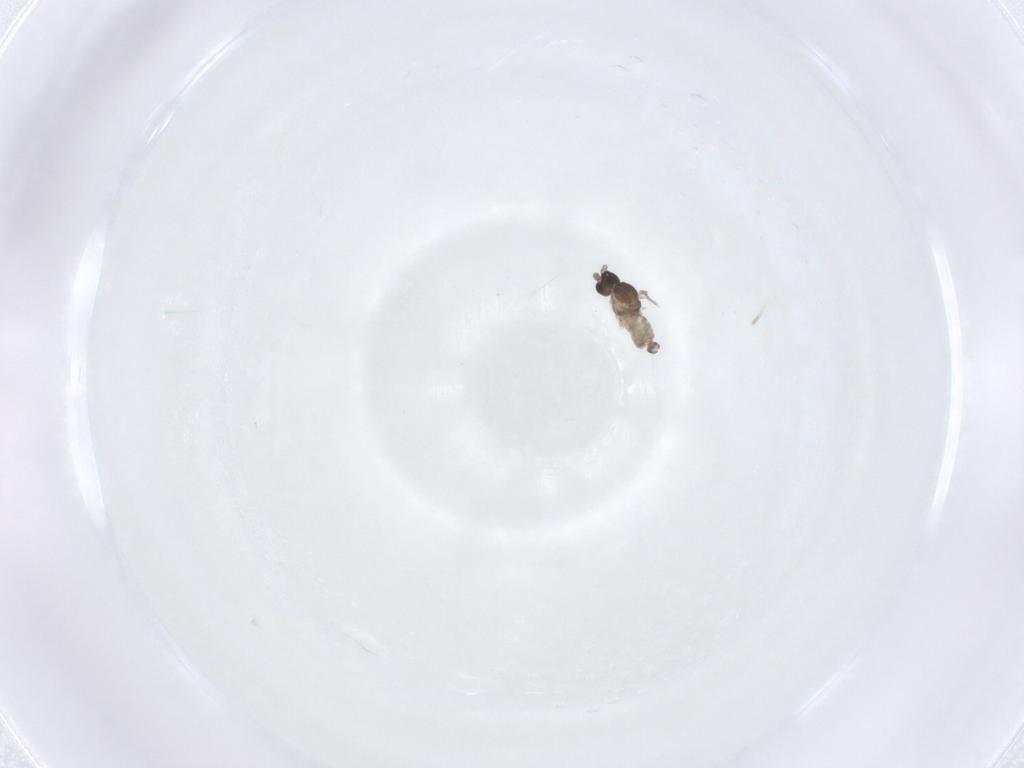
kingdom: Animalia
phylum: Arthropoda
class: Insecta
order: Diptera
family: Cecidomyiidae
